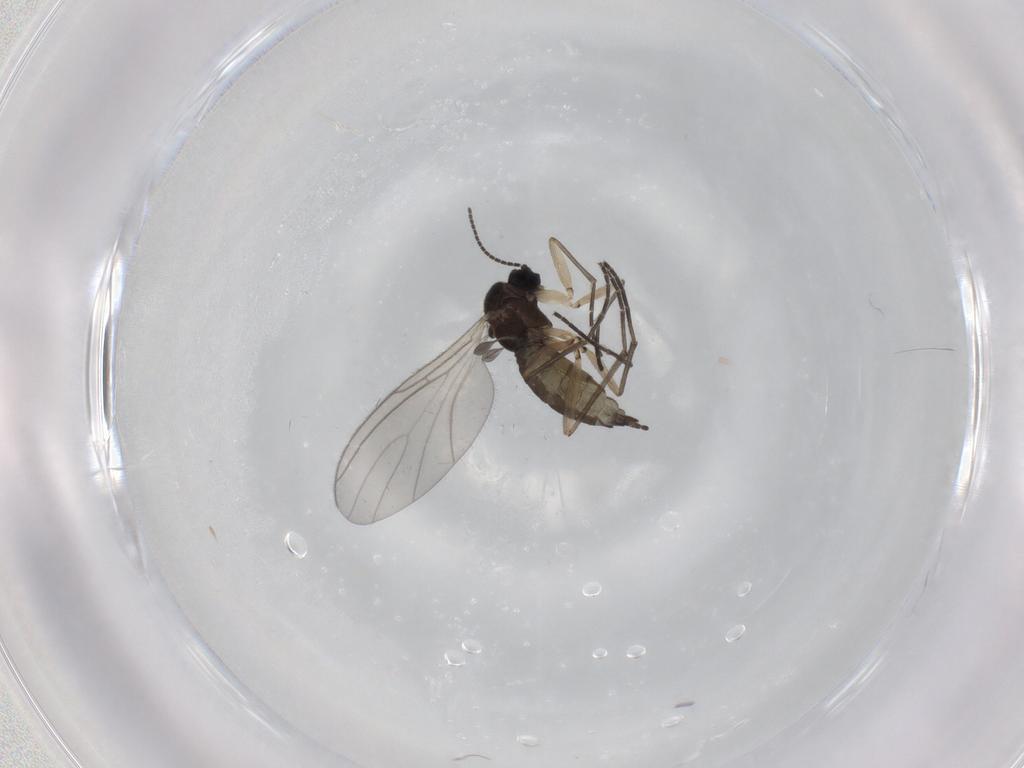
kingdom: Animalia
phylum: Arthropoda
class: Insecta
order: Diptera
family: Sciaridae
